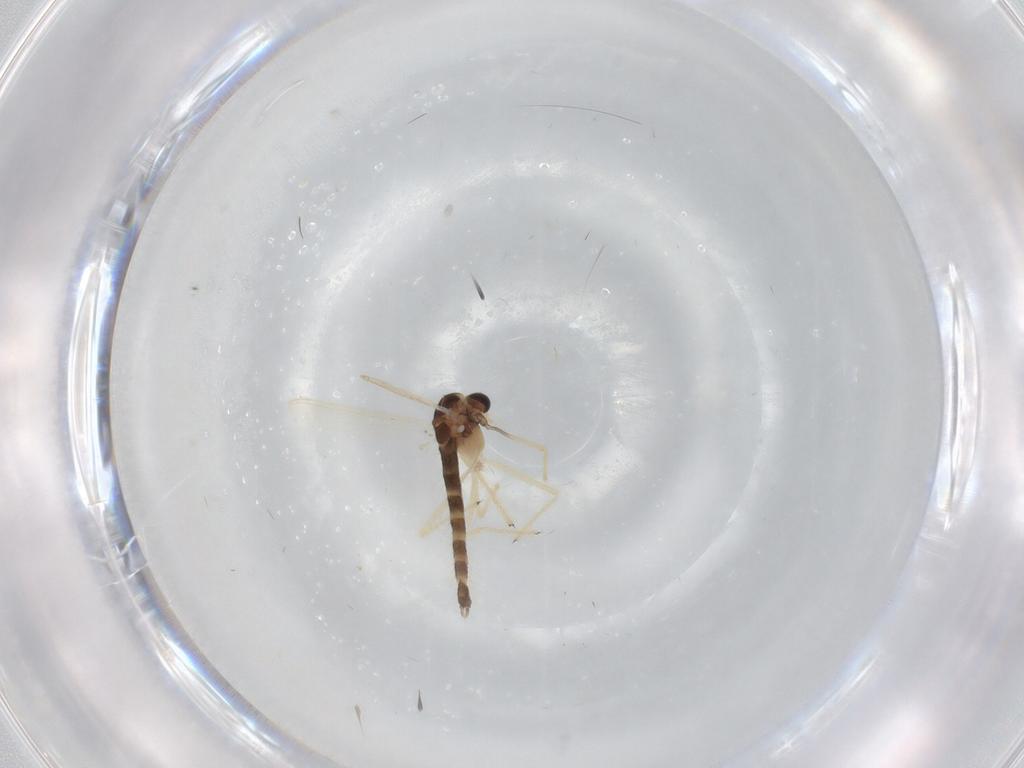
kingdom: Animalia
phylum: Arthropoda
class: Insecta
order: Diptera
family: Chironomidae
